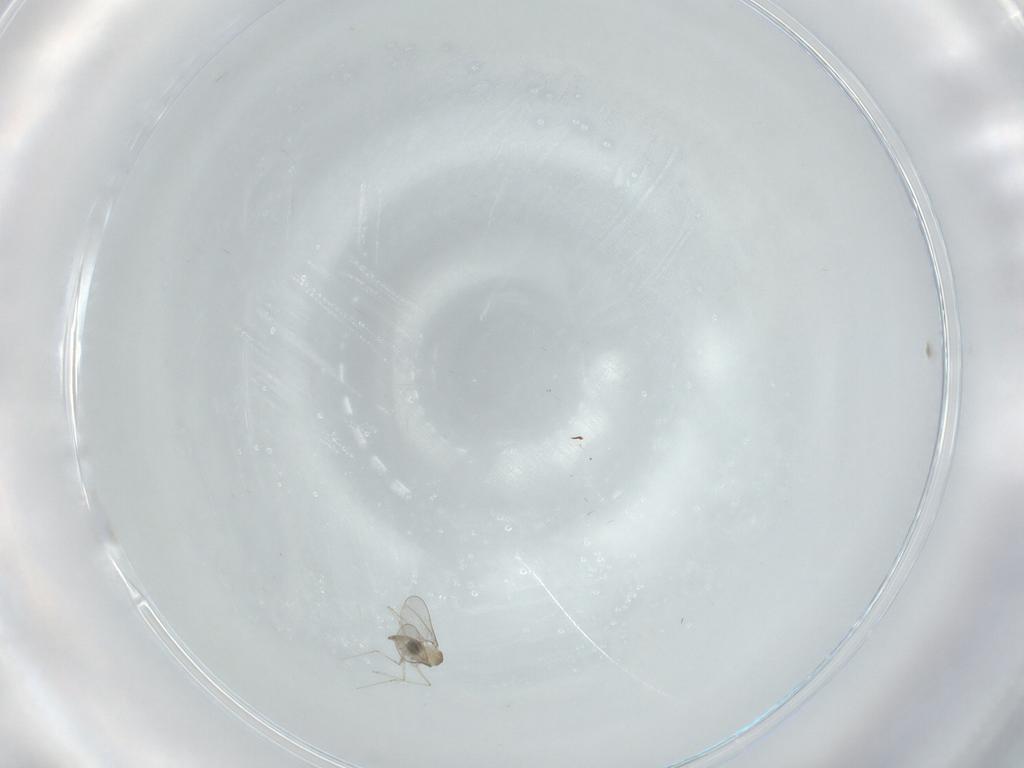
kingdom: Animalia
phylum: Arthropoda
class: Insecta
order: Diptera
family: Cecidomyiidae
